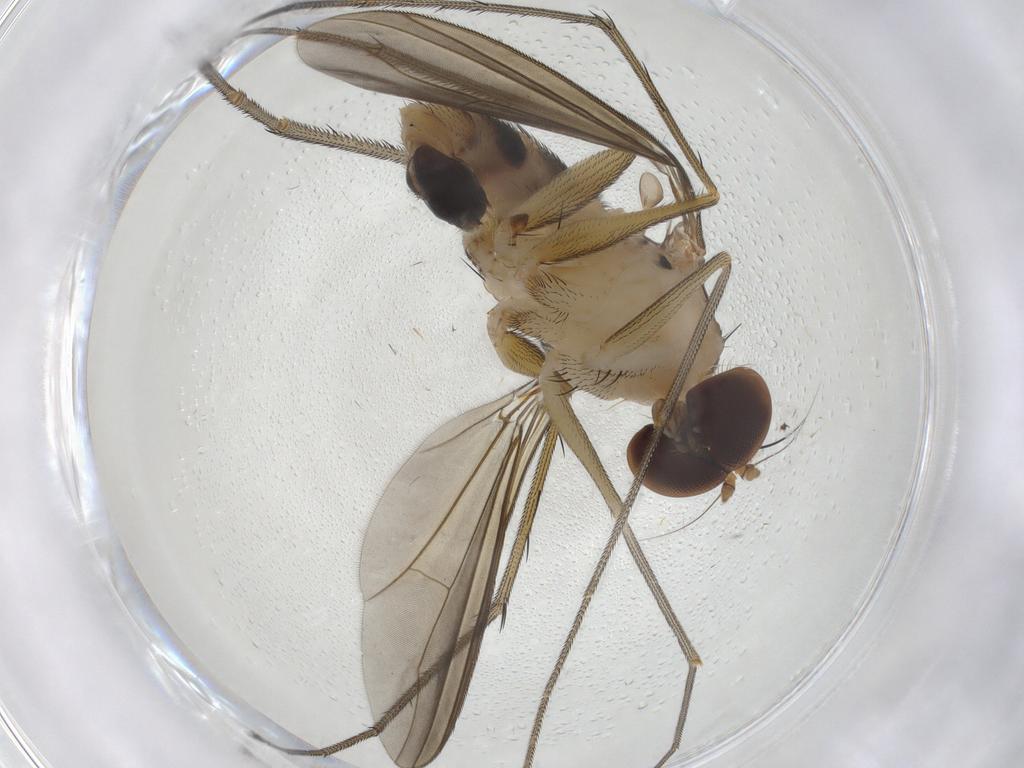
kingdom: Animalia
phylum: Arthropoda
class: Insecta
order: Diptera
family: Dolichopodidae
